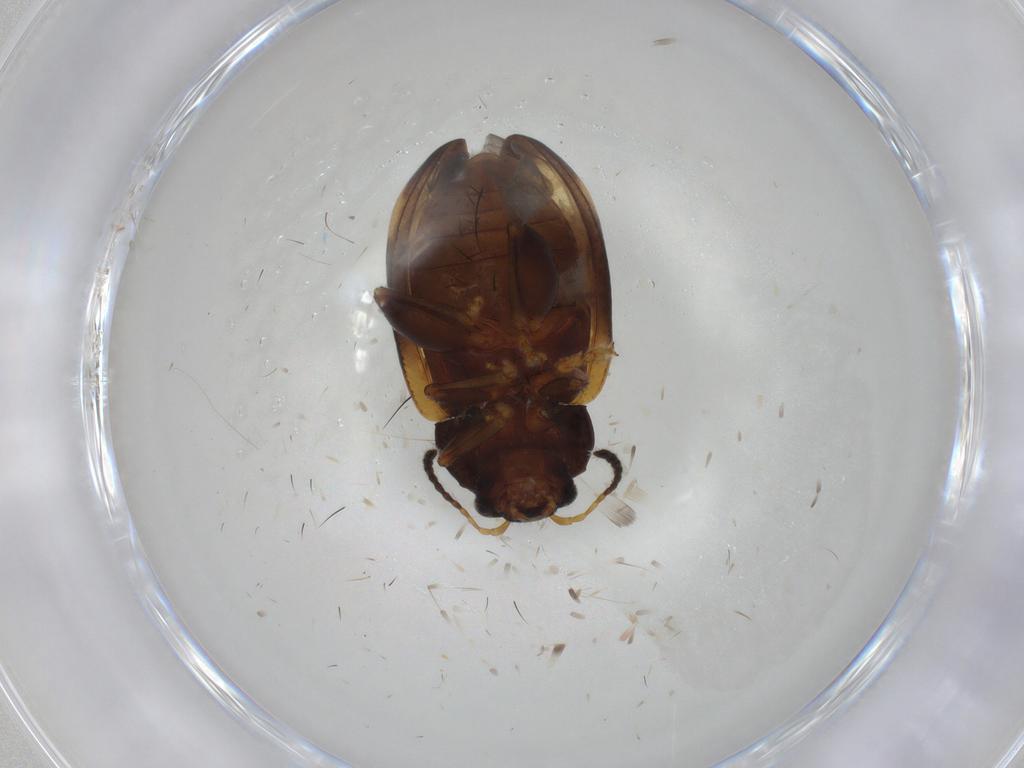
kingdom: Animalia
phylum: Arthropoda
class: Insecta
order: Coleoptera
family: Chrysomelidae
